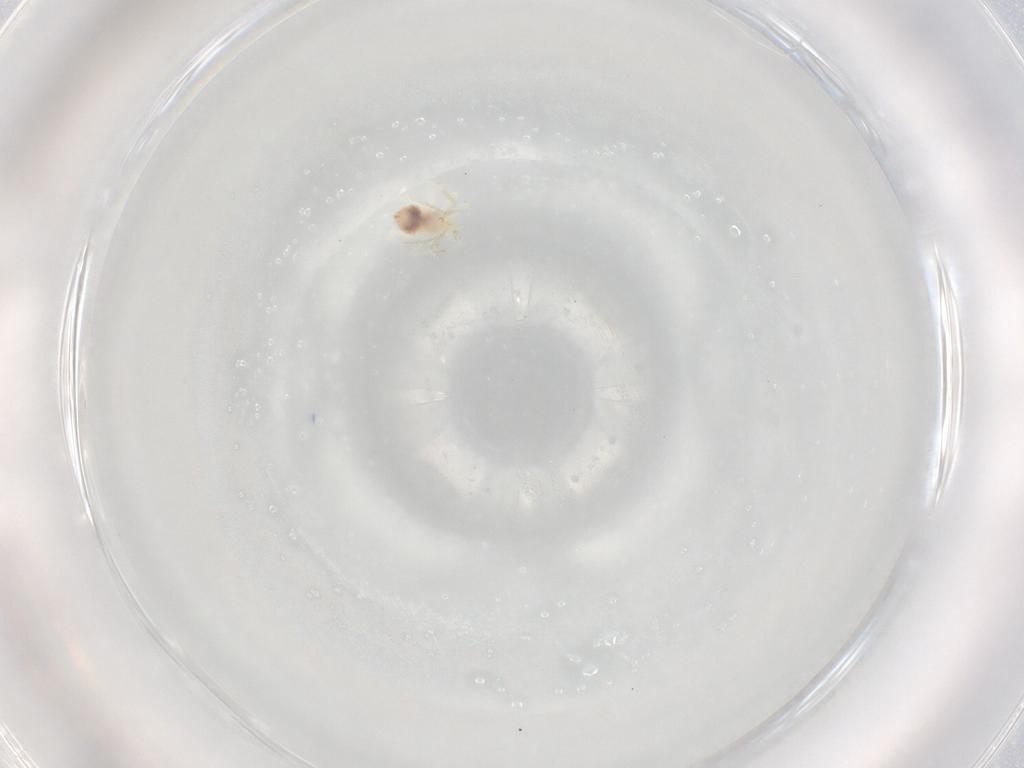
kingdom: Animalia
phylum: Arthropoda
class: Arachnida
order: Trombidiformes
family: Anystidae
